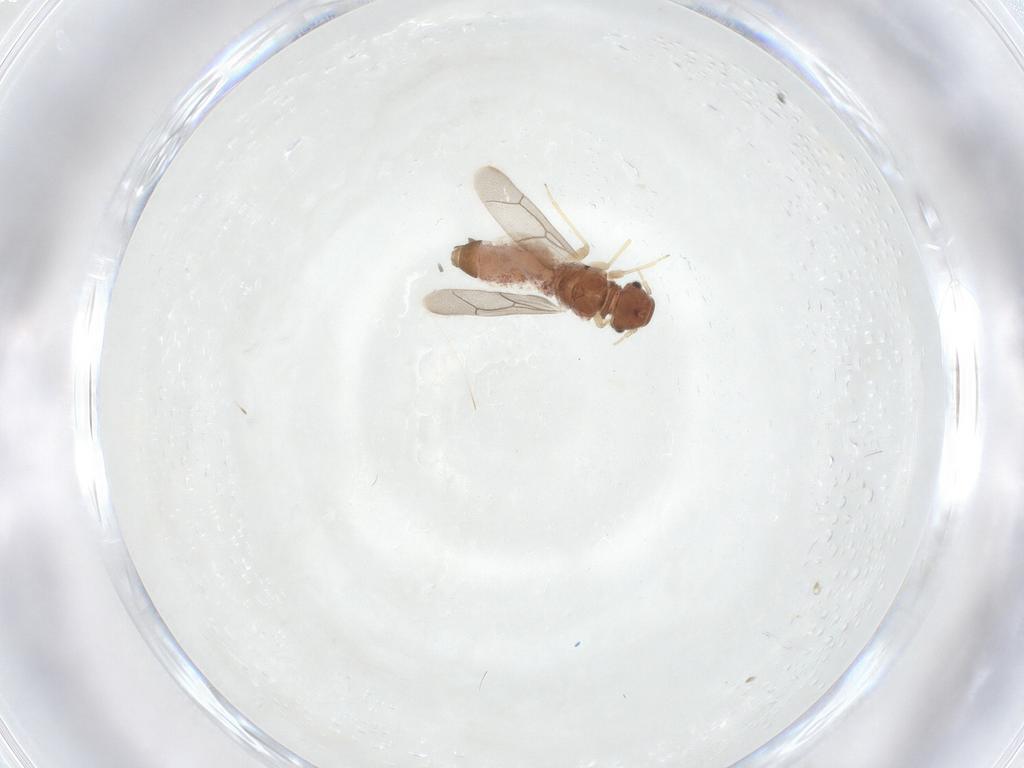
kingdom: Animalia
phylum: Arthropoda
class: Insecta
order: Psocodea
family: Archipsocidae
